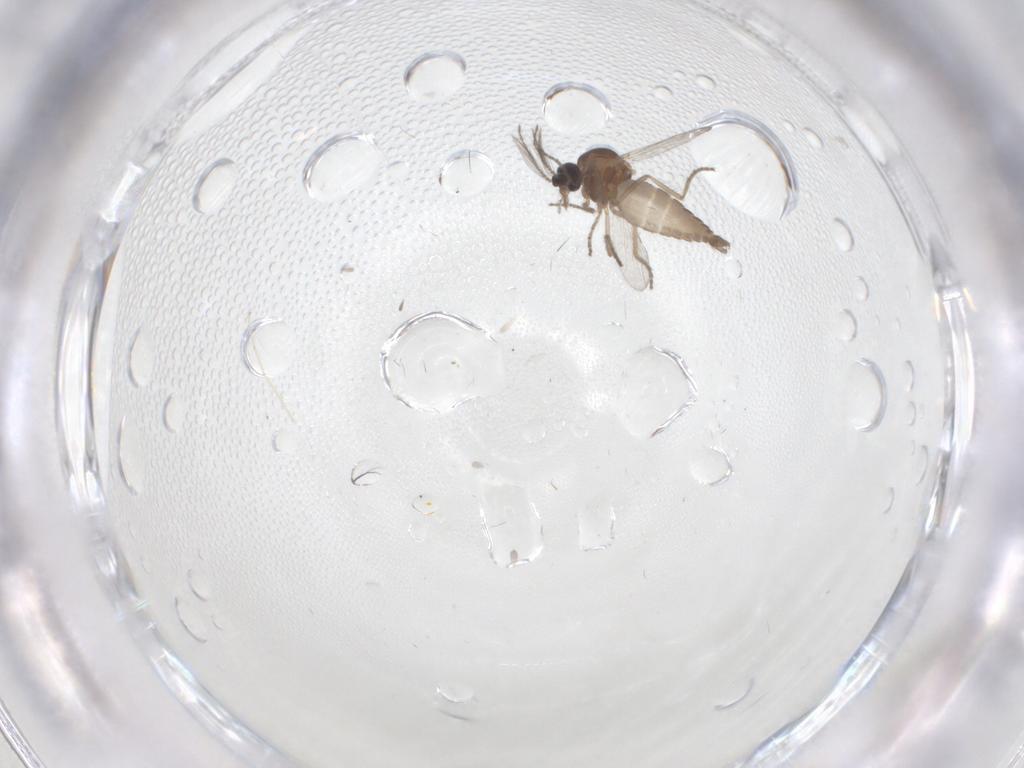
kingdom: Animalia
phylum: Arthropoda
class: Insecta
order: Diptera
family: Cecidomyiidae
